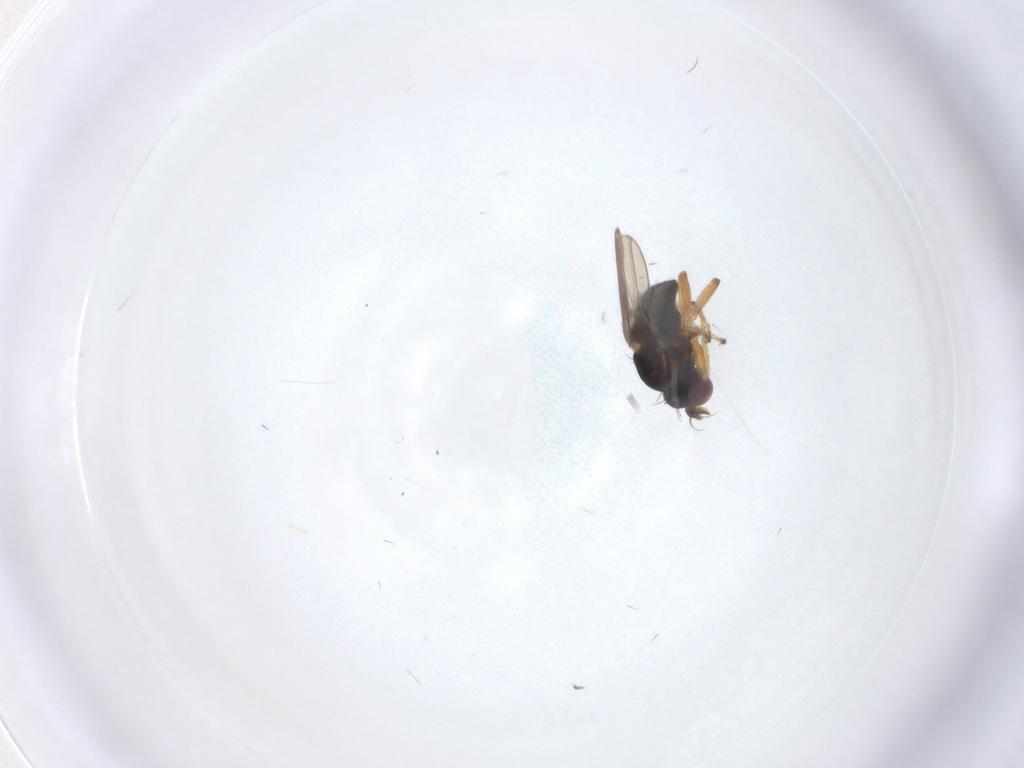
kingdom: Animalia
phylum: Arthropoda
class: Insecta
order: Diptera
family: Ephydridae
